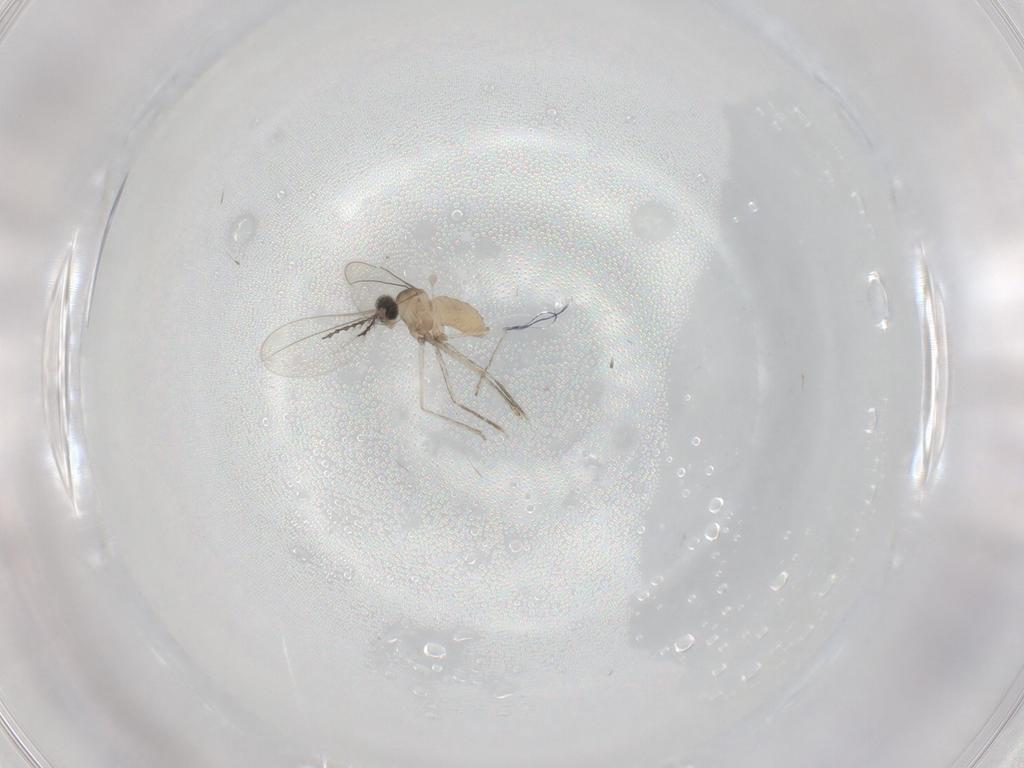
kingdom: Animalia
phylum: Arthropoda
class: Insecta
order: Diptera
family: Cecidomyiidae
